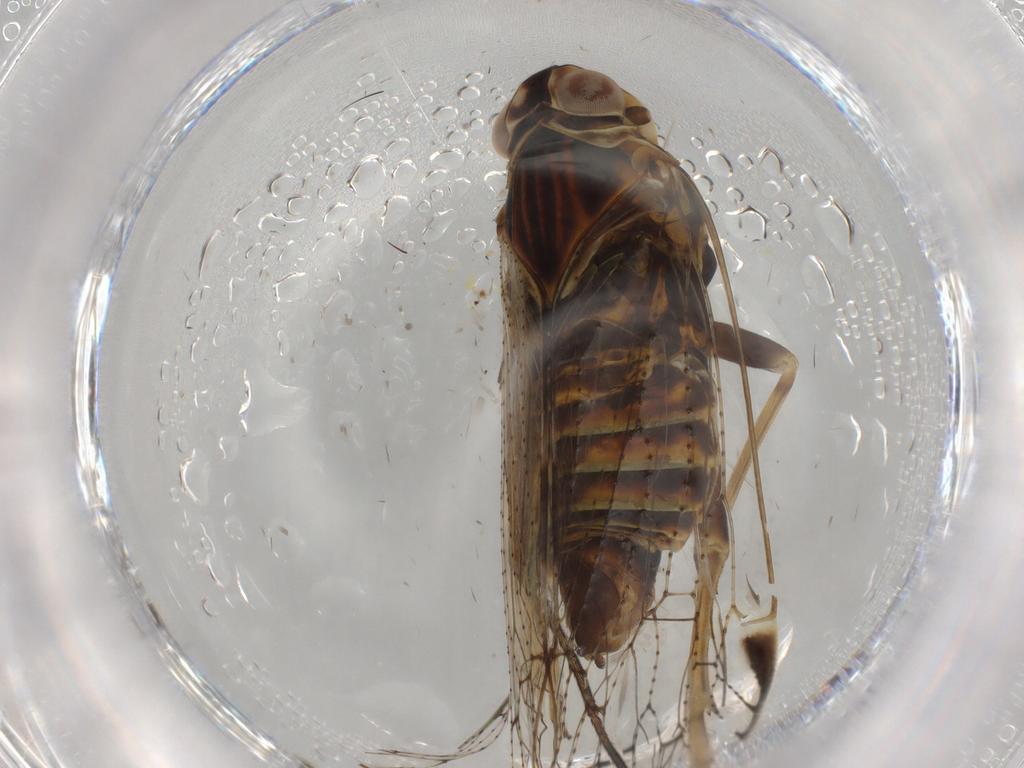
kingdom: Animalia
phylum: Arthropoda
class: Insecta
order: Hemiptera
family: Cixiidae
